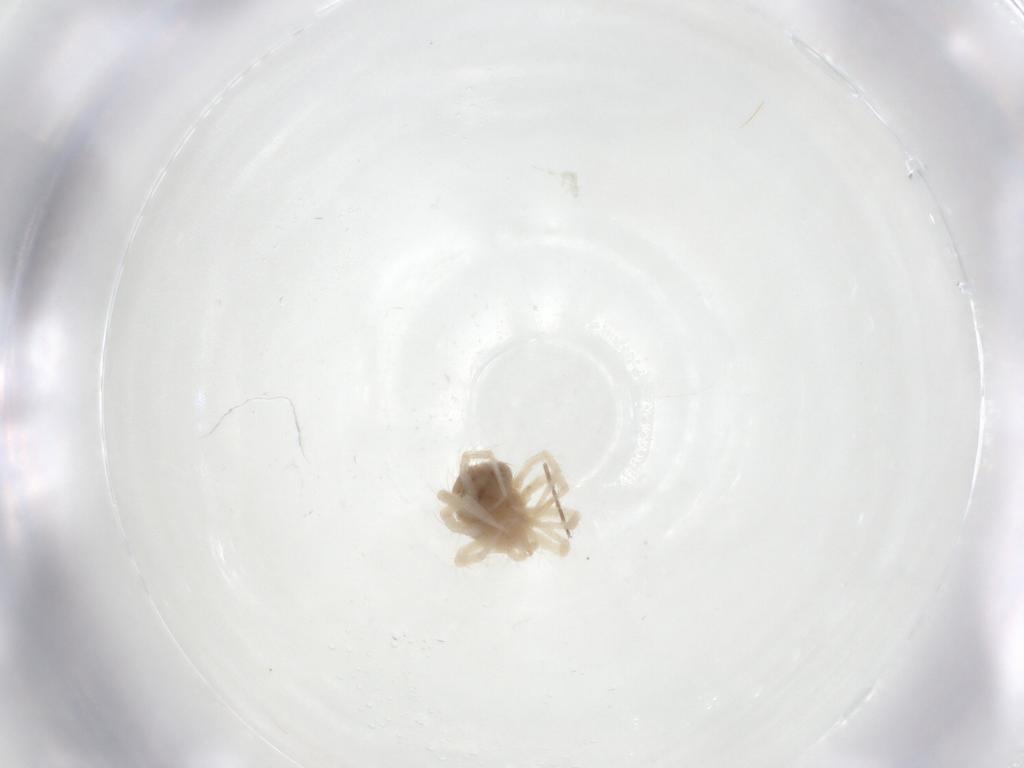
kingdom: Animalia
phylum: Arthropoda
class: Arachnida
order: Trombidiformes
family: Anystidae
